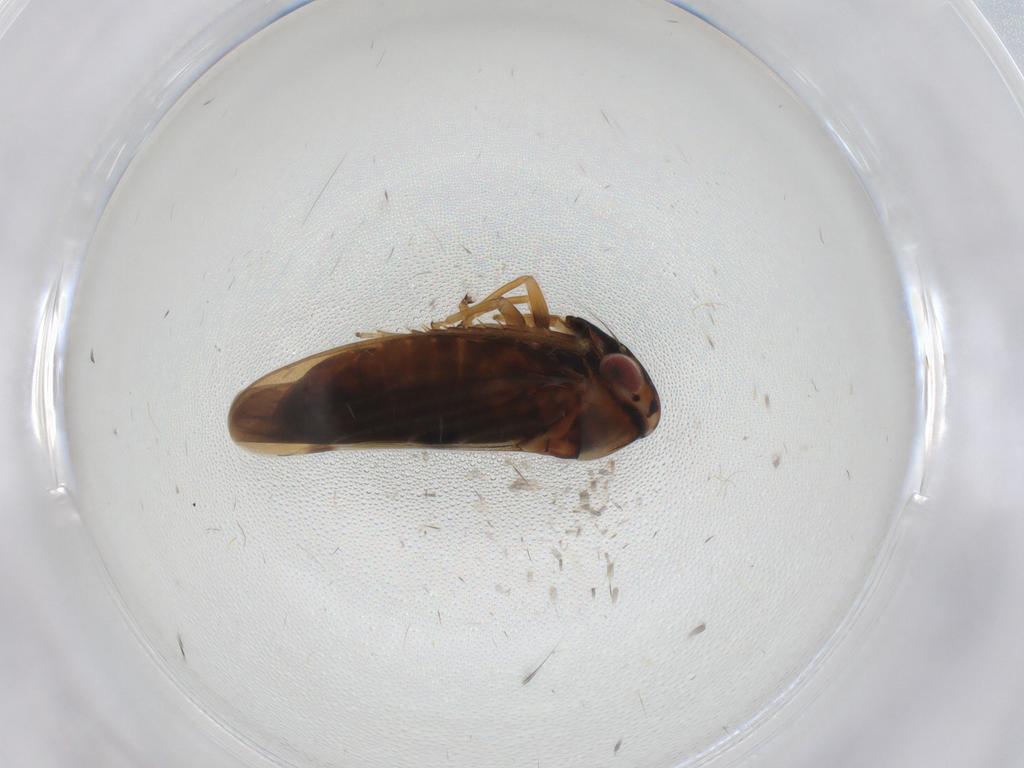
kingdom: Animalia
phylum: Arthropoda
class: Insecta
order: Hemiptera
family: Cicadellidae
